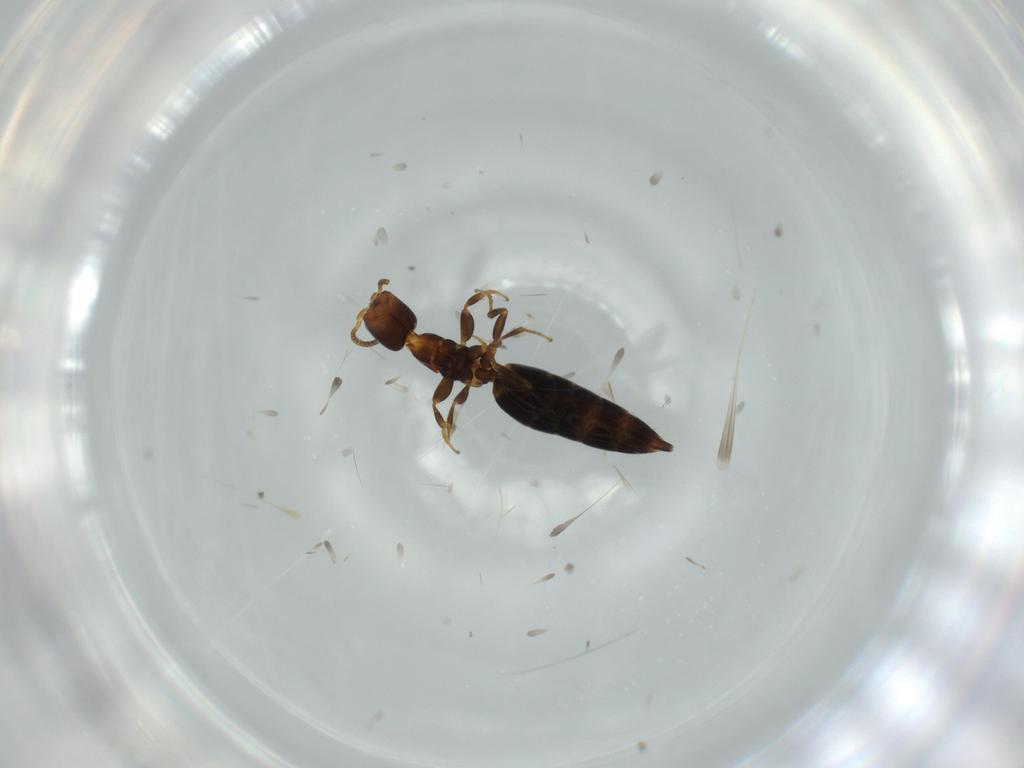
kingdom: Animalia
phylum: Arthropoda
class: Insecta
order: Hymenoptera
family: Bethylidae
